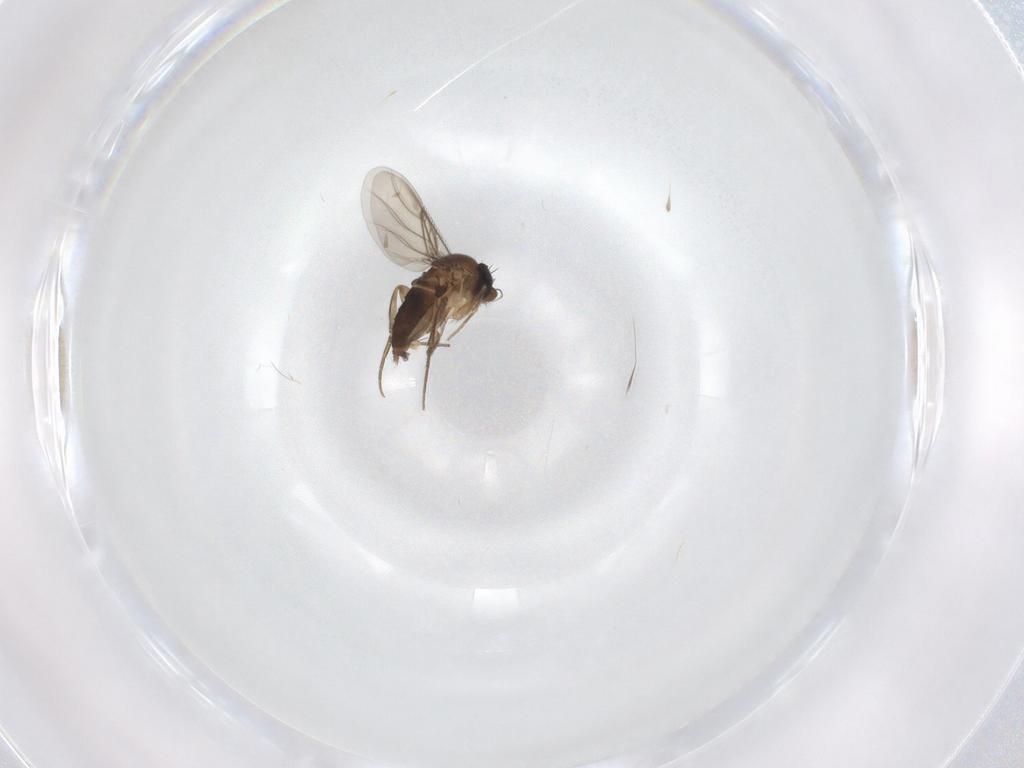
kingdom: Animalia
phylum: Arthropoda
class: Insecta
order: Diptera
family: Phoridae
